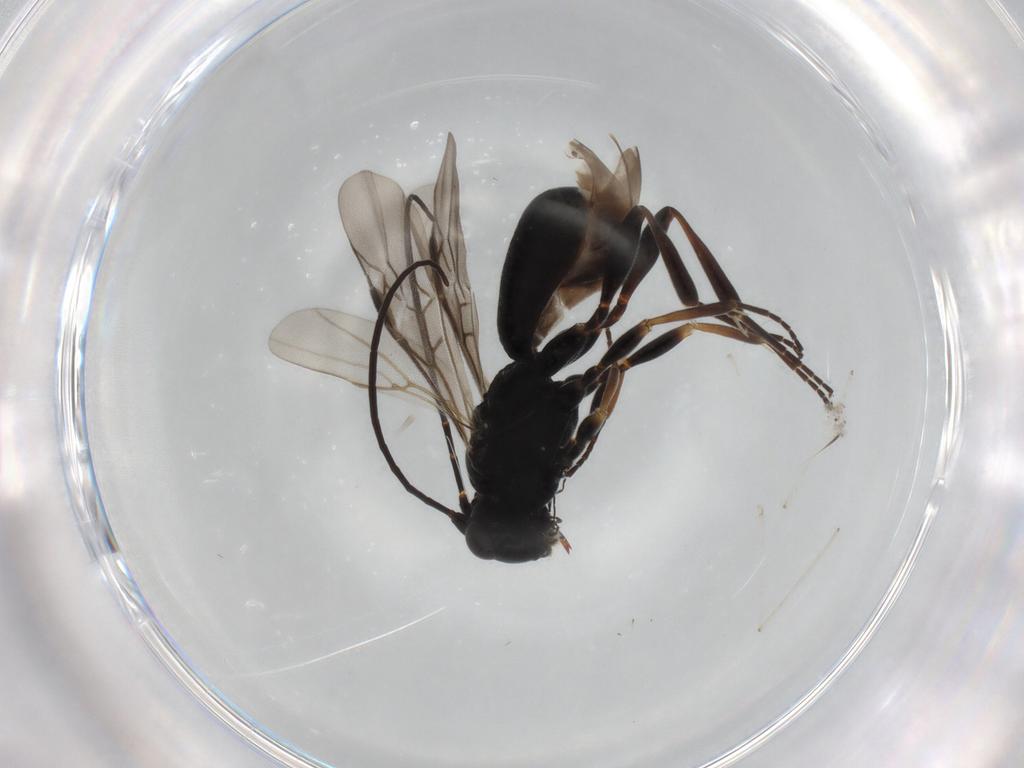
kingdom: Animalia
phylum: Arthropoda
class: Insecta
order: Hymenoptera
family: Braconidae
